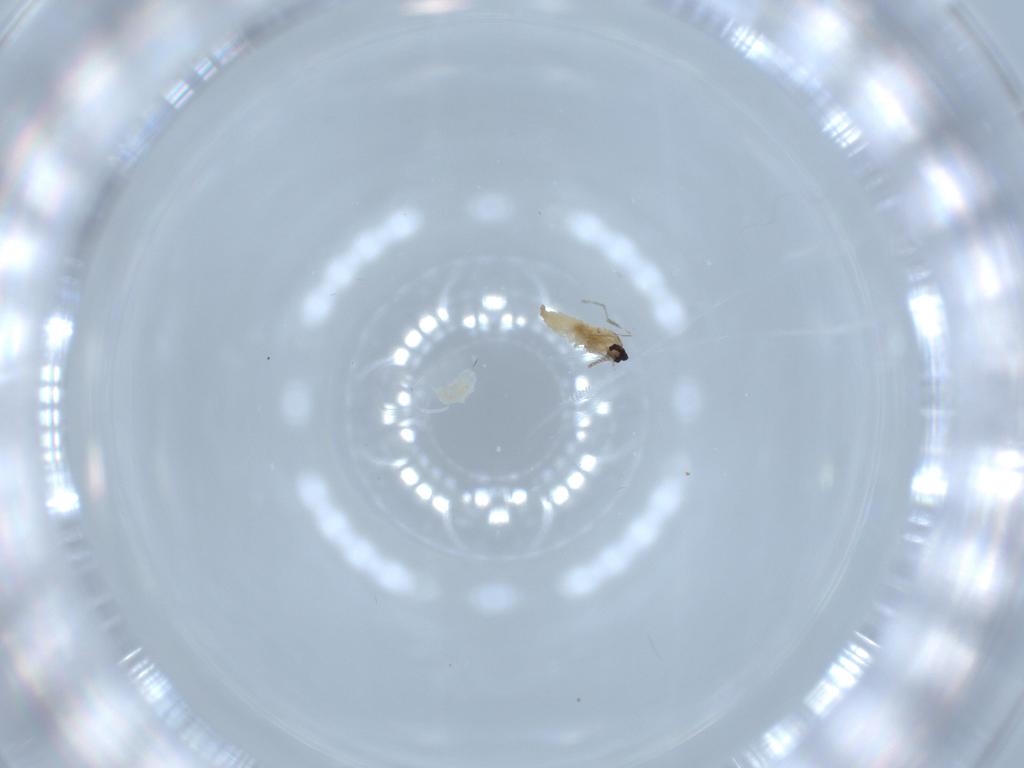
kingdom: Animalia
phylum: Arthropoda
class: Insecta
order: Diptera
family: Cecidomyiidae
